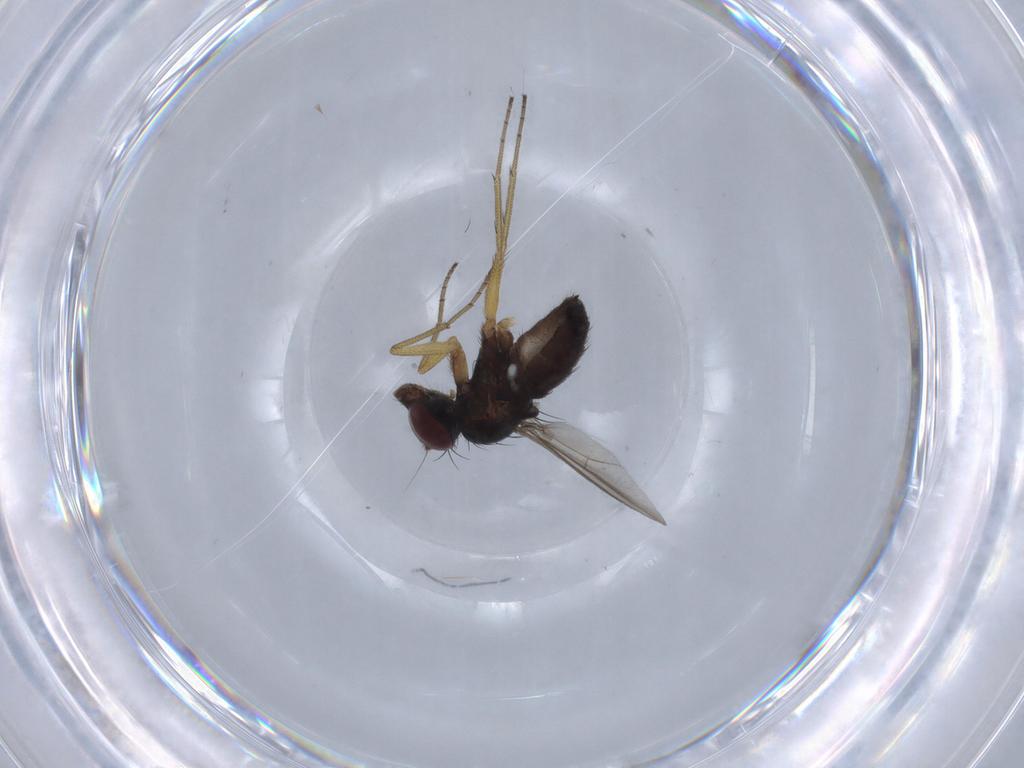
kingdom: Animalia
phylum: Arthropoda
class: Insecta
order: Diptera
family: Dolichopodidae
